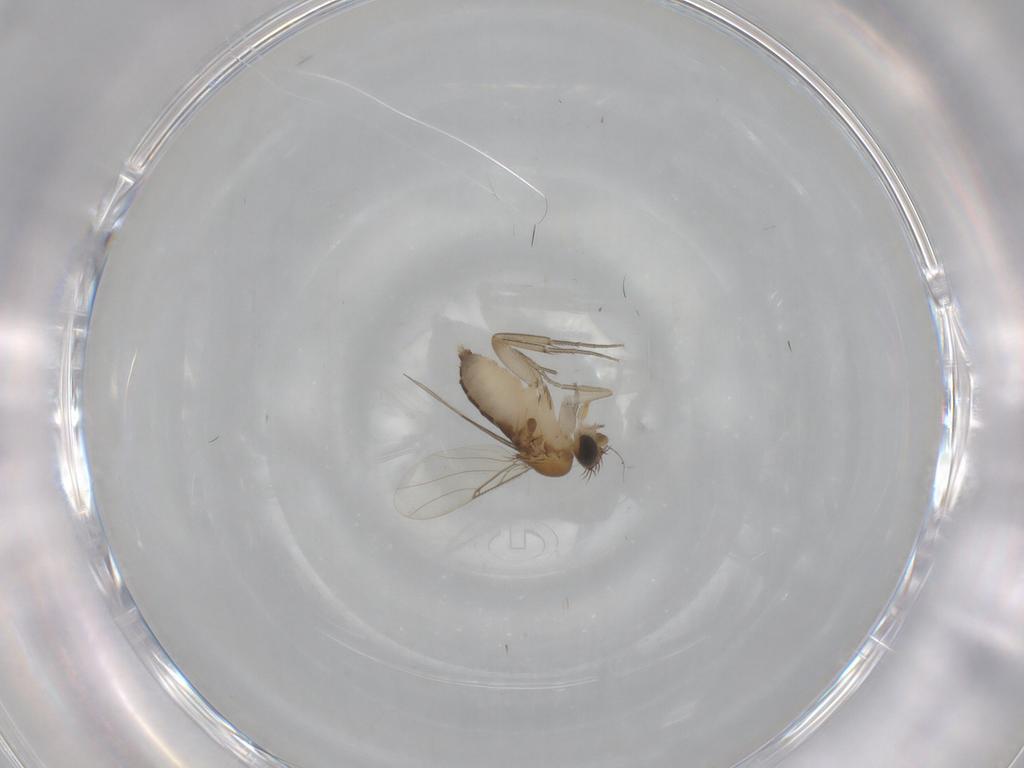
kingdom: Animalia
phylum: Arthropoda
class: Insecta
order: Diptera
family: Phoridae
